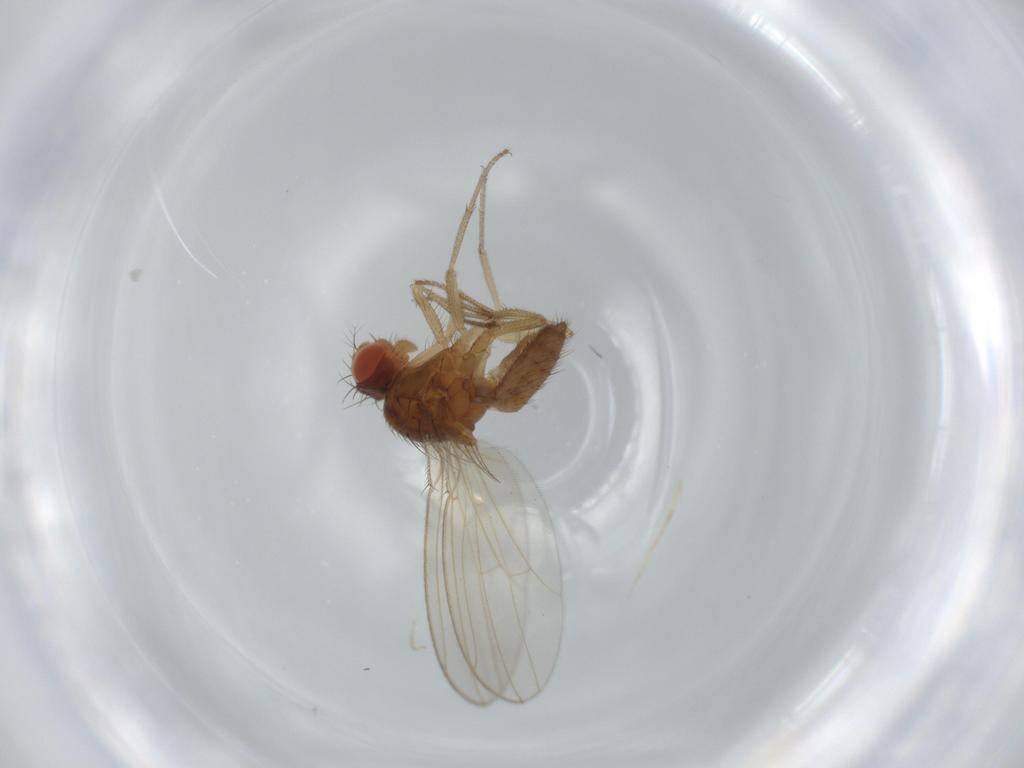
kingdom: Animalia
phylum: Arthropoda
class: Insecta
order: Diptera
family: Drosophilidae
